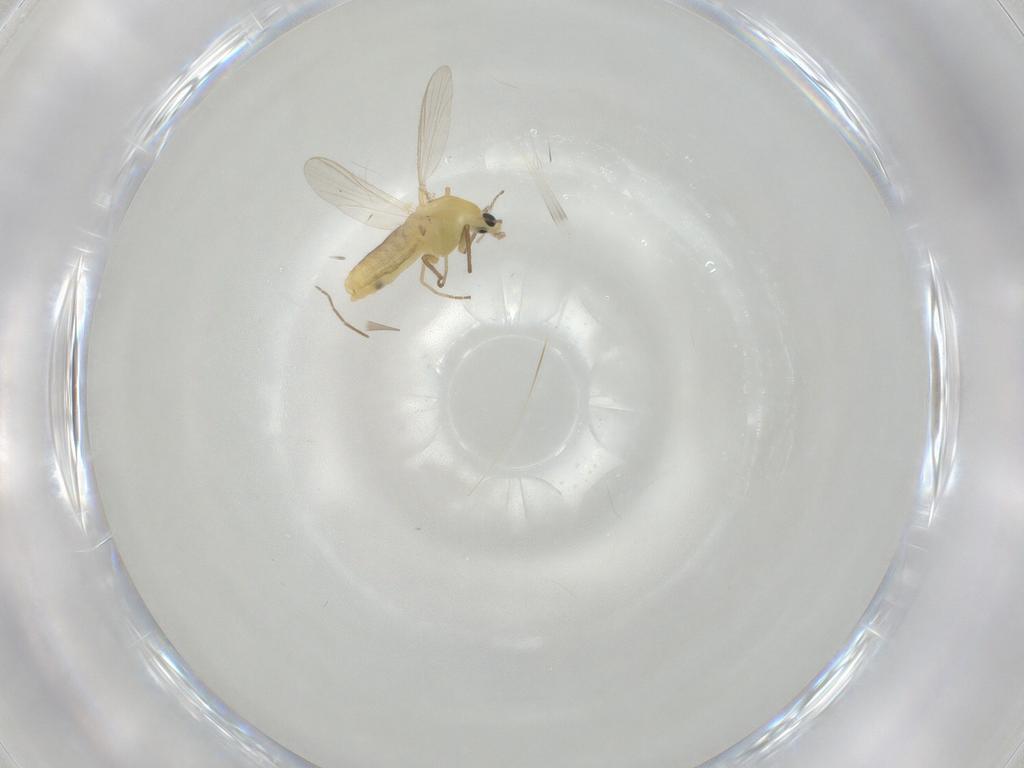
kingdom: Animalia
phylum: Arthropoda
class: Insecta
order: Diptera
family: Chironomidae
